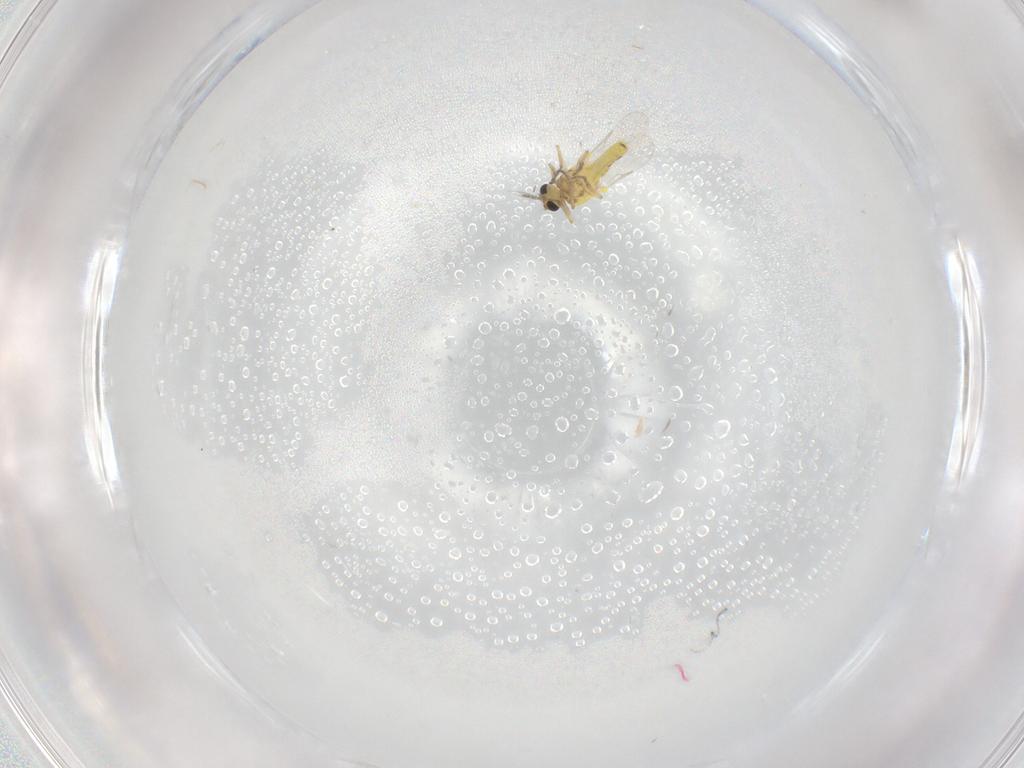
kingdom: Animalia
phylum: Arthropoda
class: Insecta
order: Diptera
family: Ceratopogonidae
